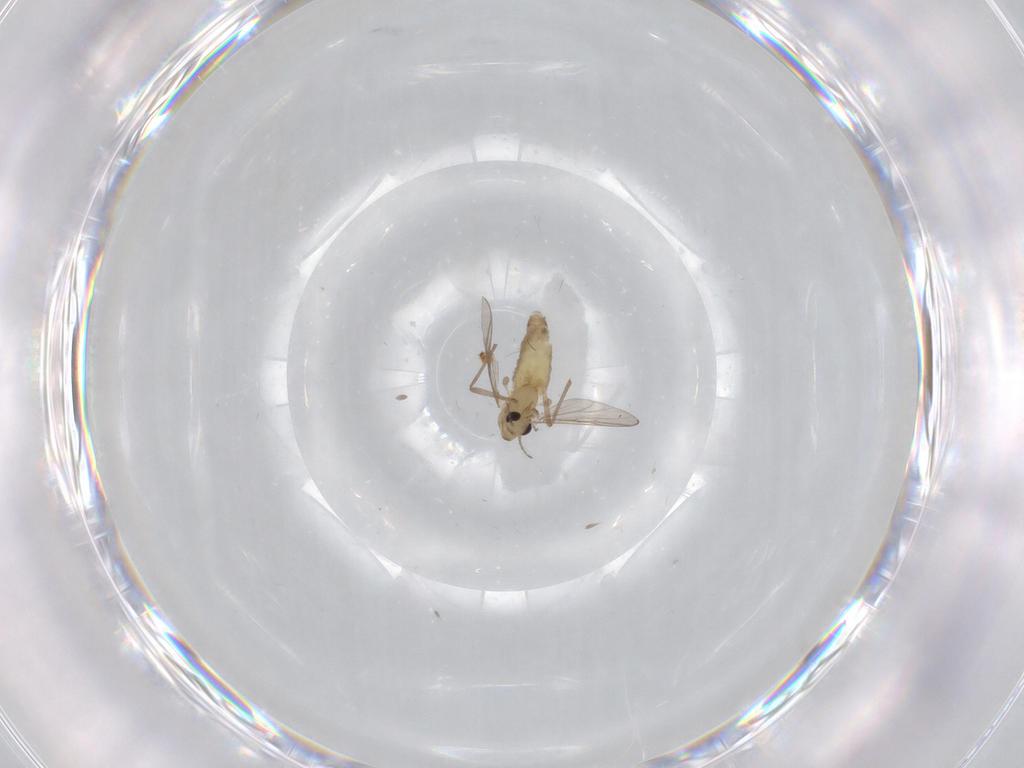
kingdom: Animalia
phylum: Arthropoda
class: Insecta
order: Diptera
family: Chironomidae
